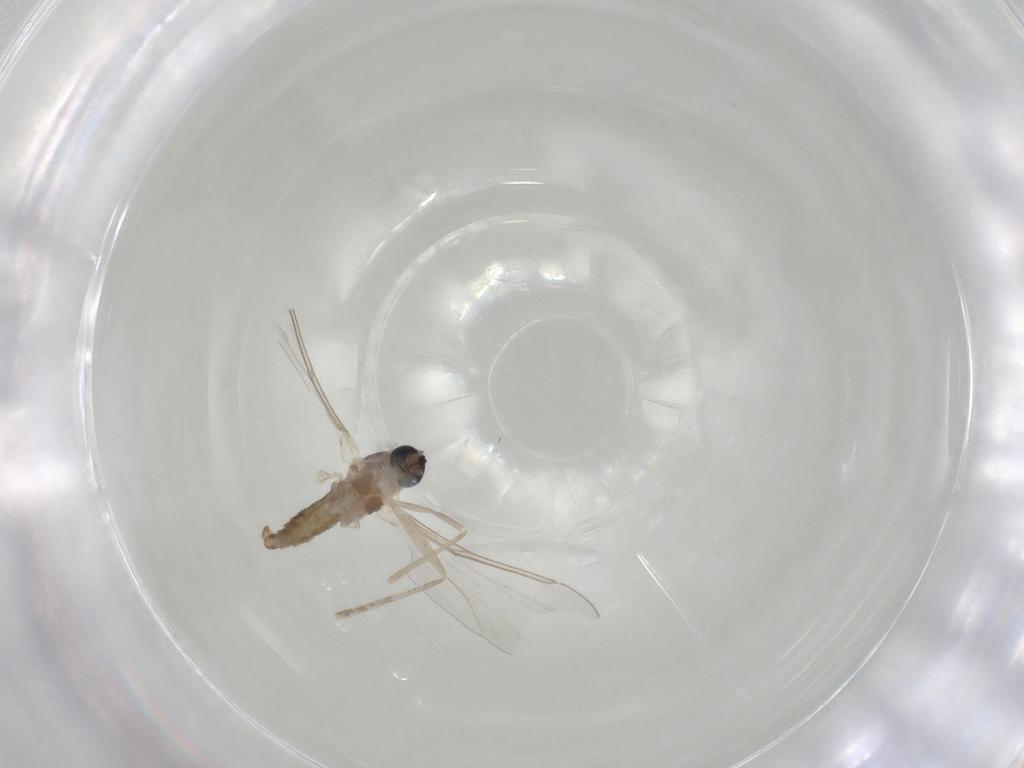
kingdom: Animalia
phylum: Arthropoda
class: Insecta
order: Diptera
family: Cecidomyiidae
